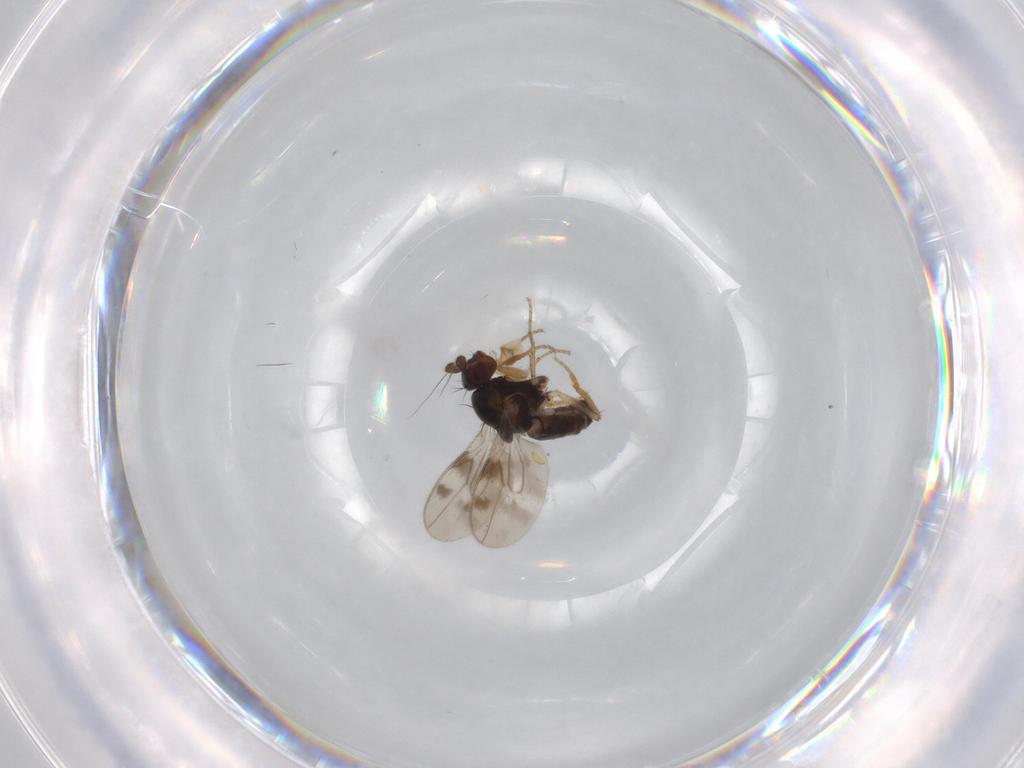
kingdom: Animalia
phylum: Arthropoda
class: Insecta
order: Diptera
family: Sphaeroceridae
